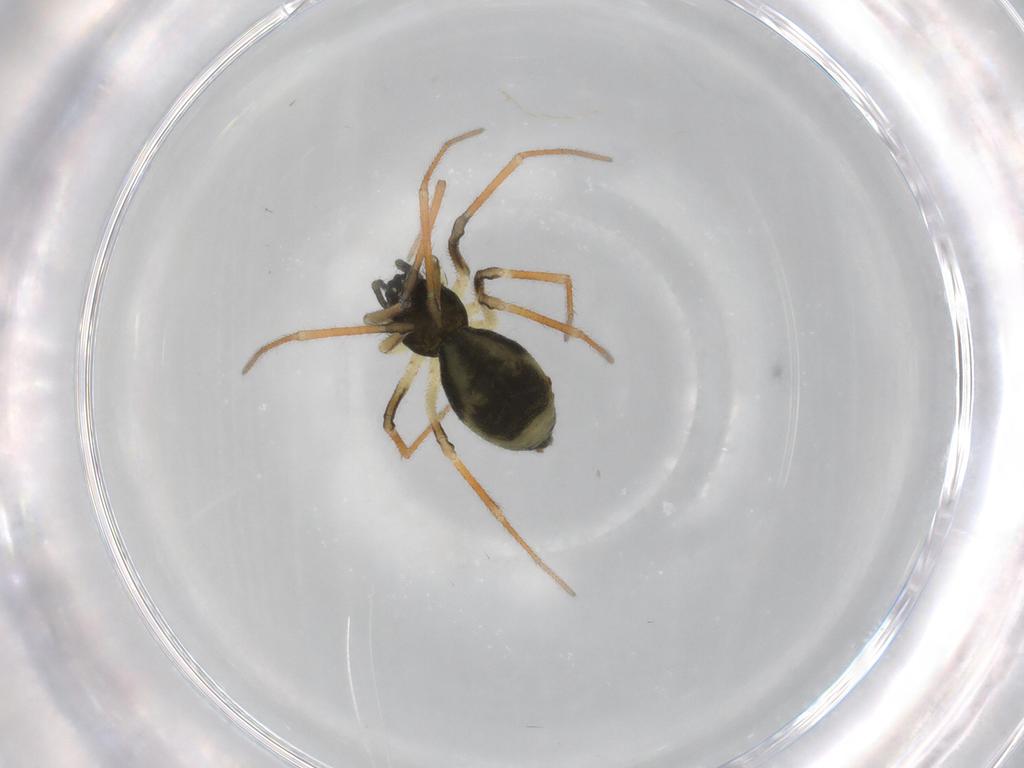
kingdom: Animalia
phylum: Arthropoda
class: Arachnida
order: Araneae
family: Linyphiidae
